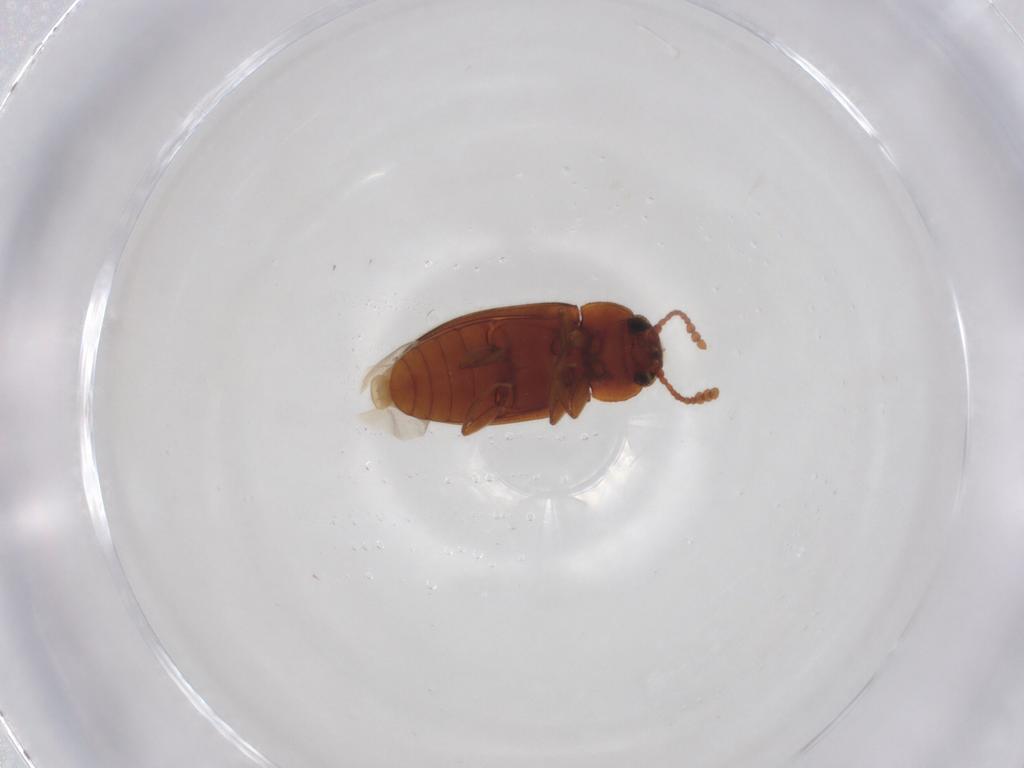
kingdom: Animalia
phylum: Arthropoda
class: Insecta
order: Coleoptera
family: Erotylidae
